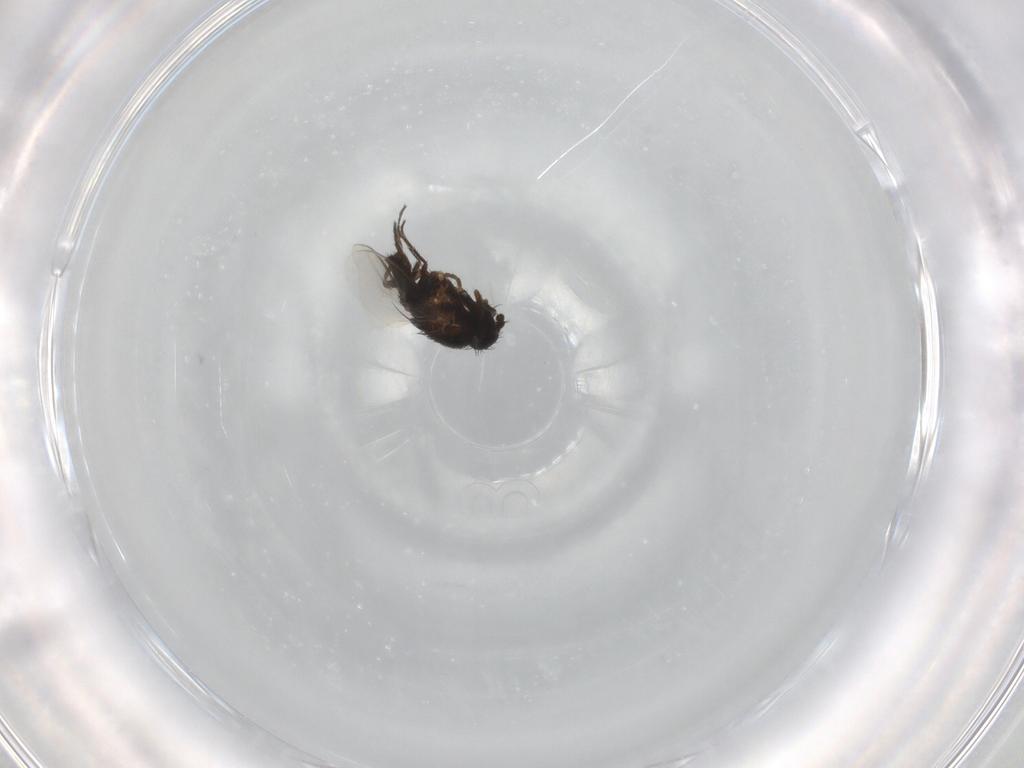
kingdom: Animalia
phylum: Arthropoda
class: Insecta
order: Diptera
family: Sphaeroceridae
